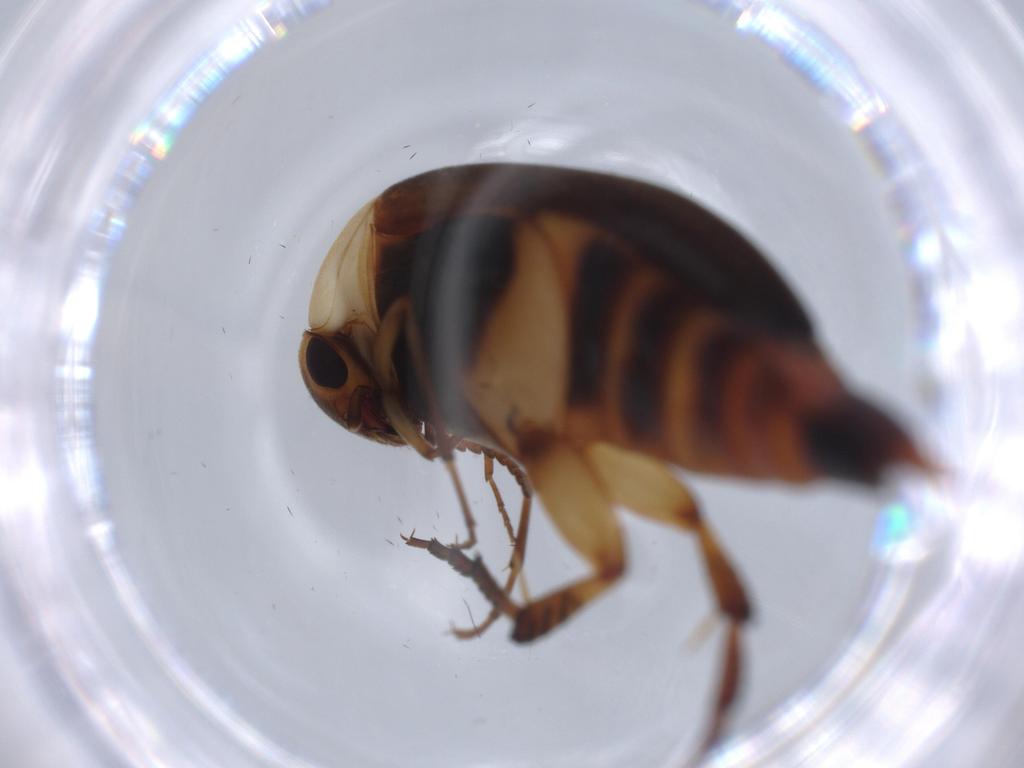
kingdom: Animalia
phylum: Arthropoda
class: Insecta
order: Coleoptera
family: Mordellidae
